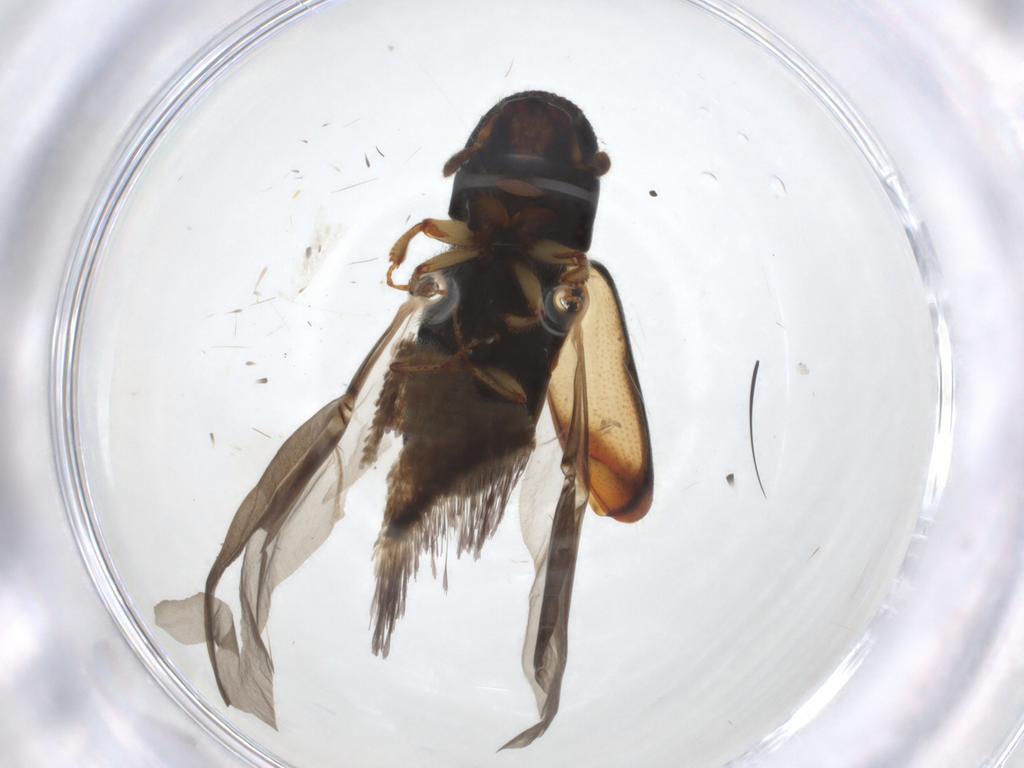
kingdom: Animalia
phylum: Arthropoda
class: Insecta
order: Coleoptera
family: Curculionidae
